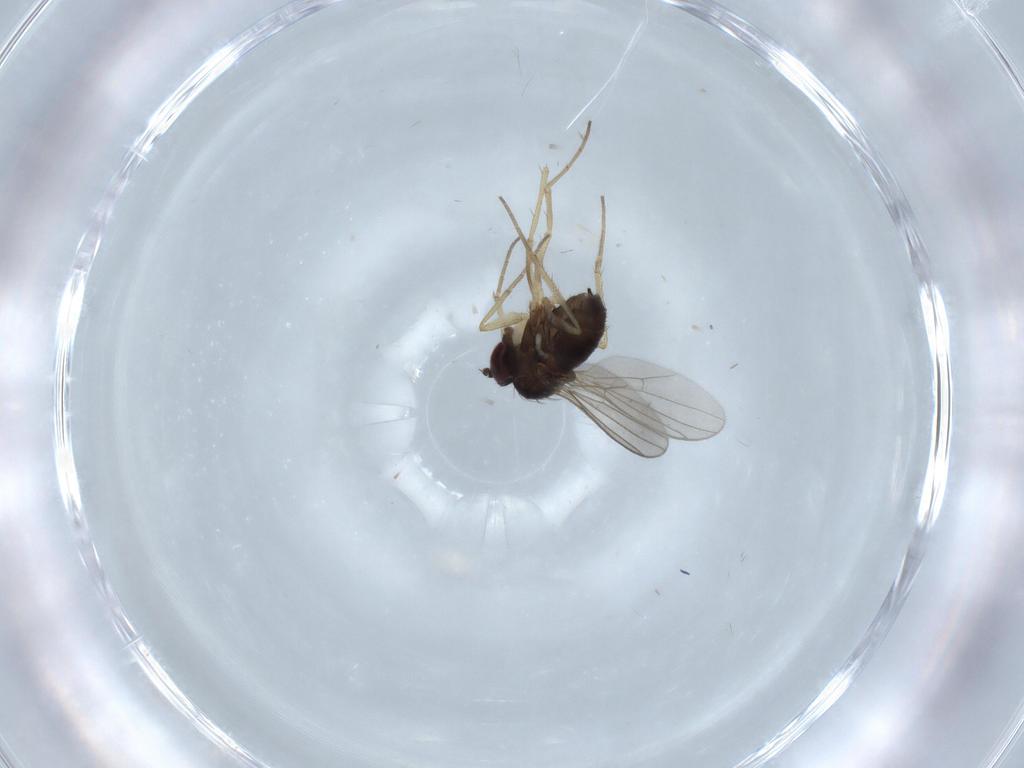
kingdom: Animalia
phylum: Arthropoda
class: Insecta
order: Diptera
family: Dolichopodidae
